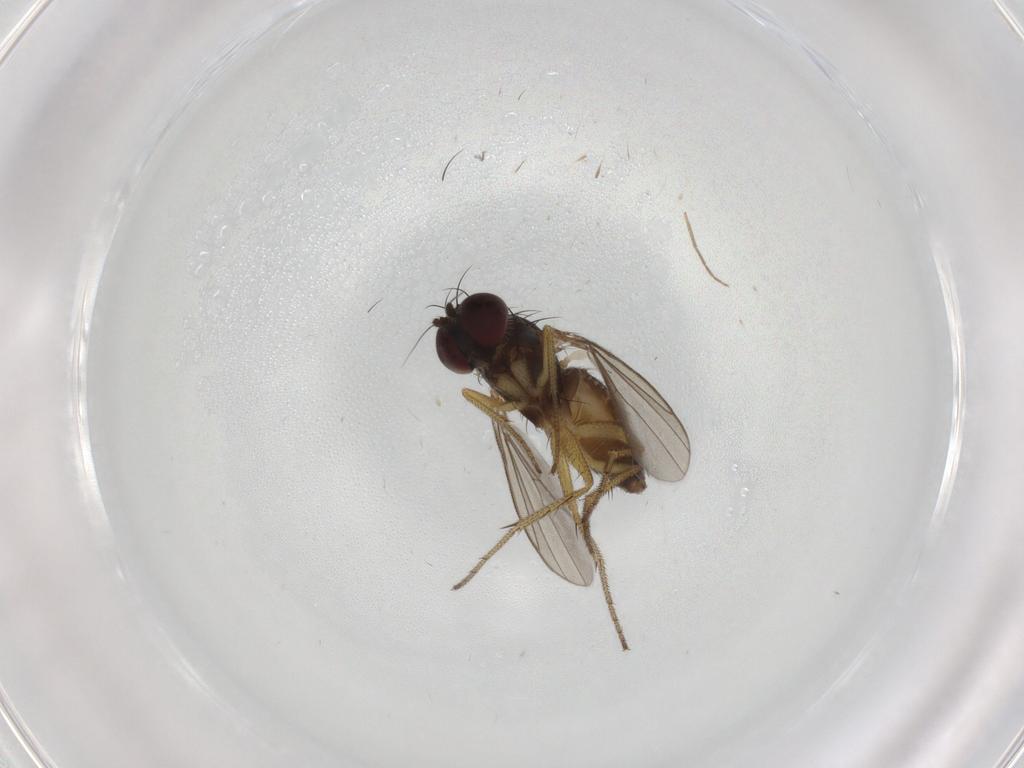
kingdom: Animalia
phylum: Arthropoda
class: Insecta
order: Diptera
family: Dolichopodidae
